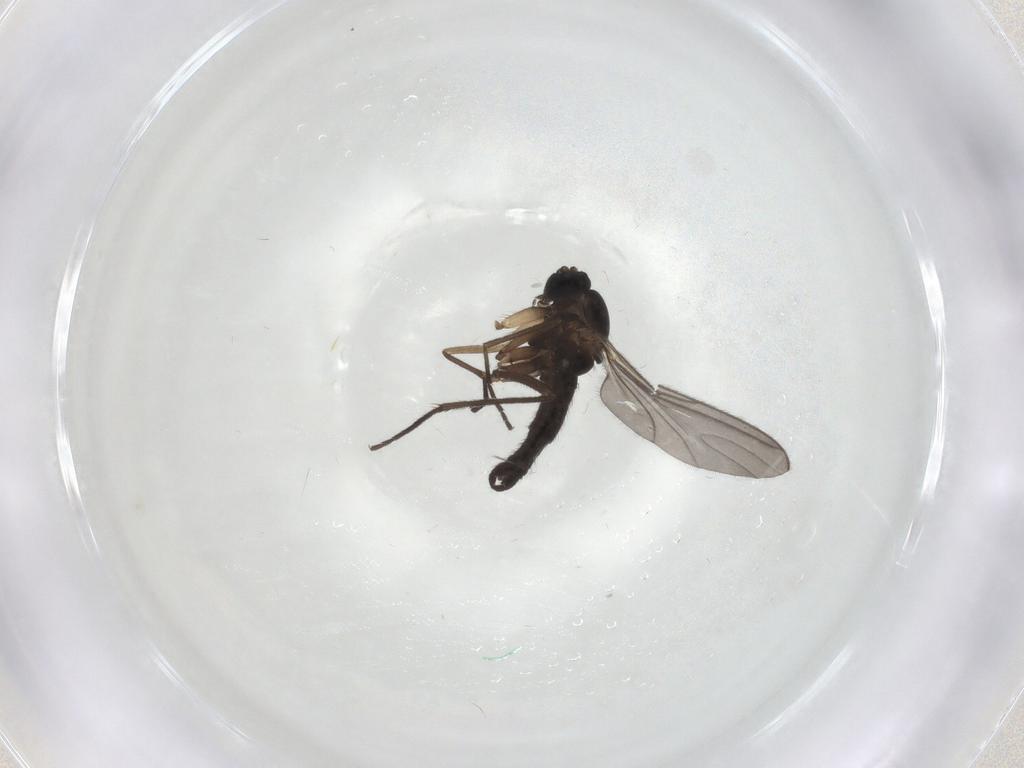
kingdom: Animalia
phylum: Arthropoda
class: Insecta
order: Diptera
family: Sciaridae
